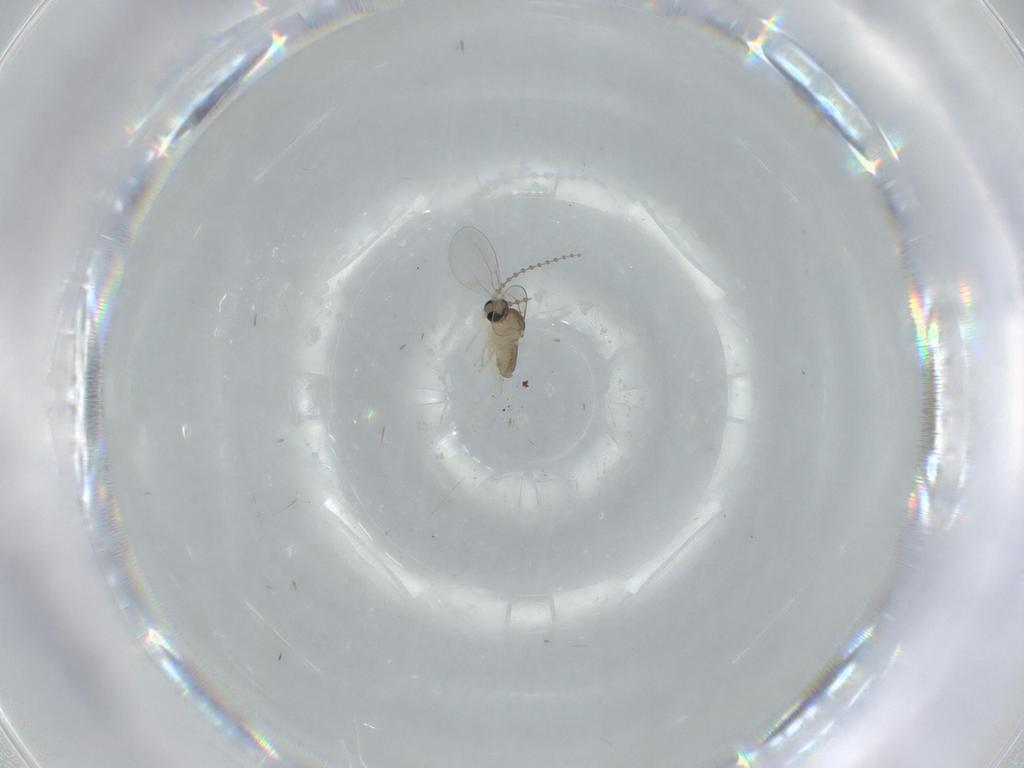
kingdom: Animalia
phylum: Arthropoda
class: Insecta
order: Diptera
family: Cecidomyiidae
